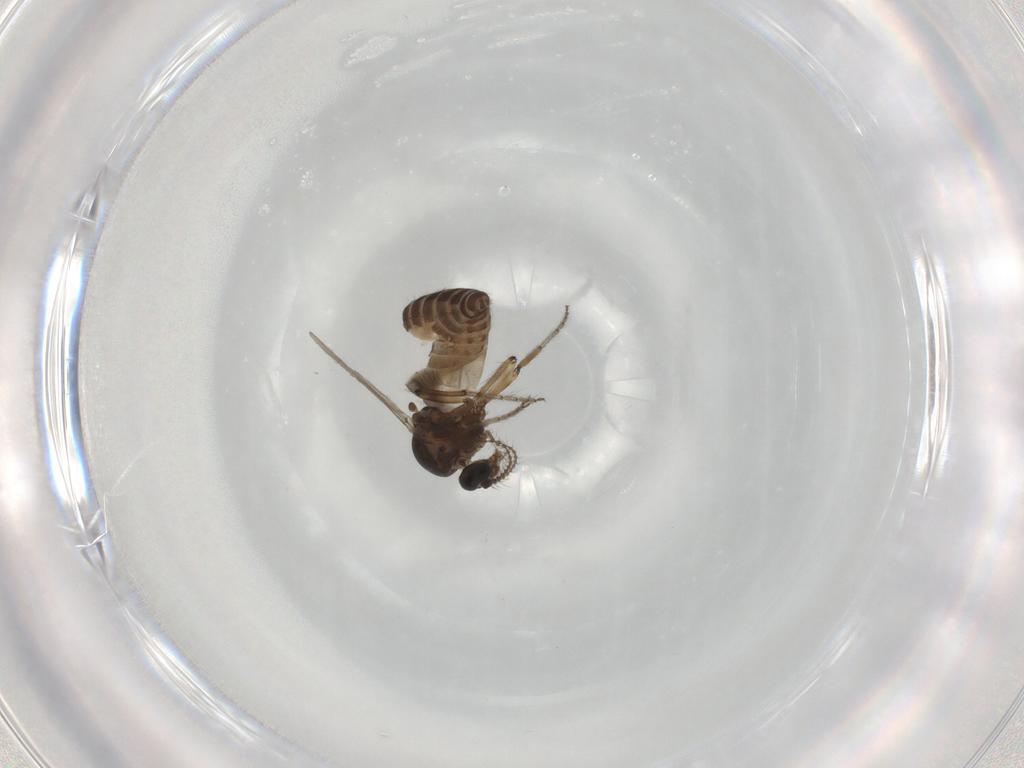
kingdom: Animalia
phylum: Arthropoda
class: Insecta
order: Diptera
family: Ceratopogonidae
